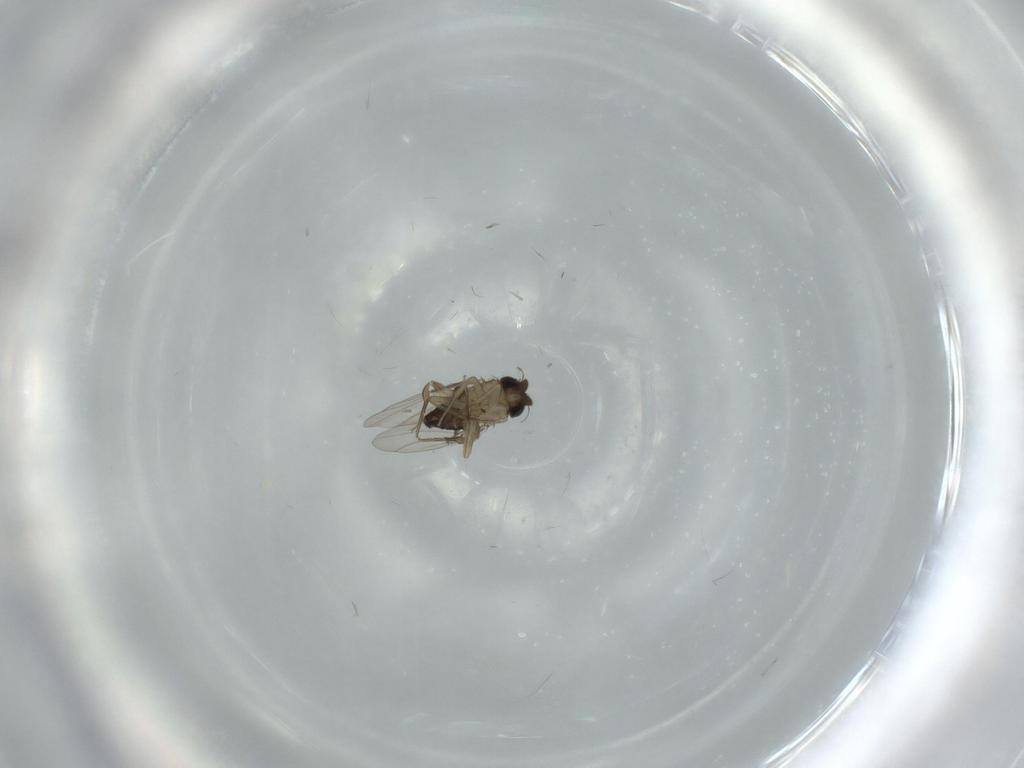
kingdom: Animalia
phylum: Arthropoda
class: Insecta
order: Diptera
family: Phoridae
